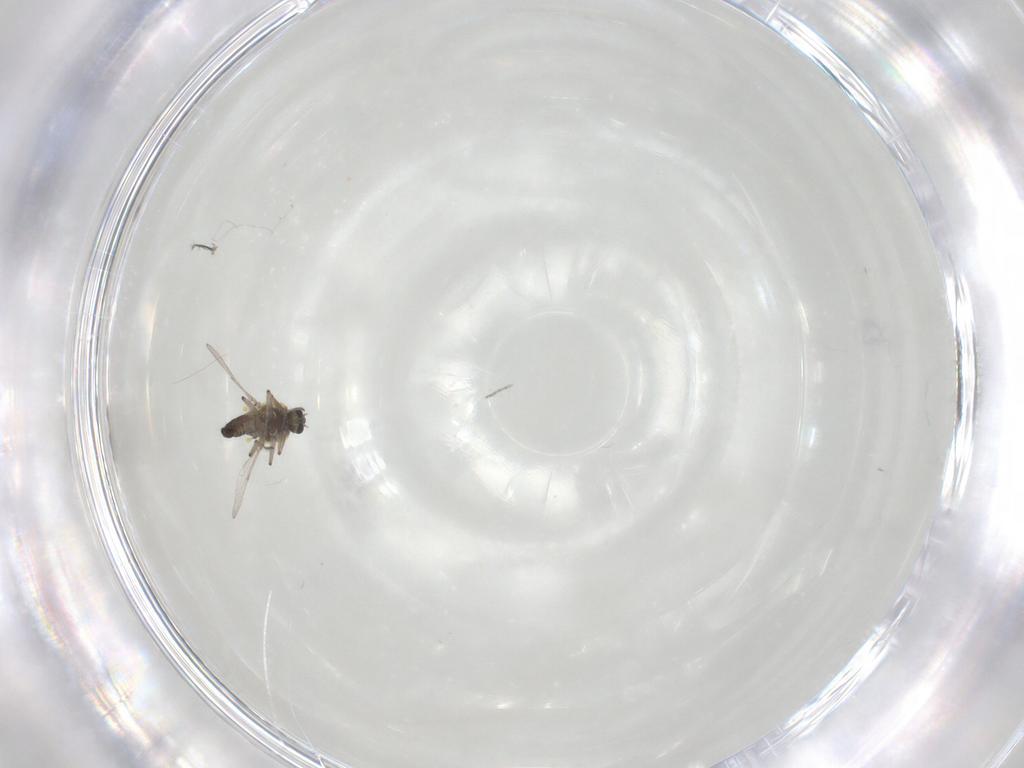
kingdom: Animalia
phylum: Arthropoda
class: Insecta
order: Diptera
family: Ceratopogonidae
